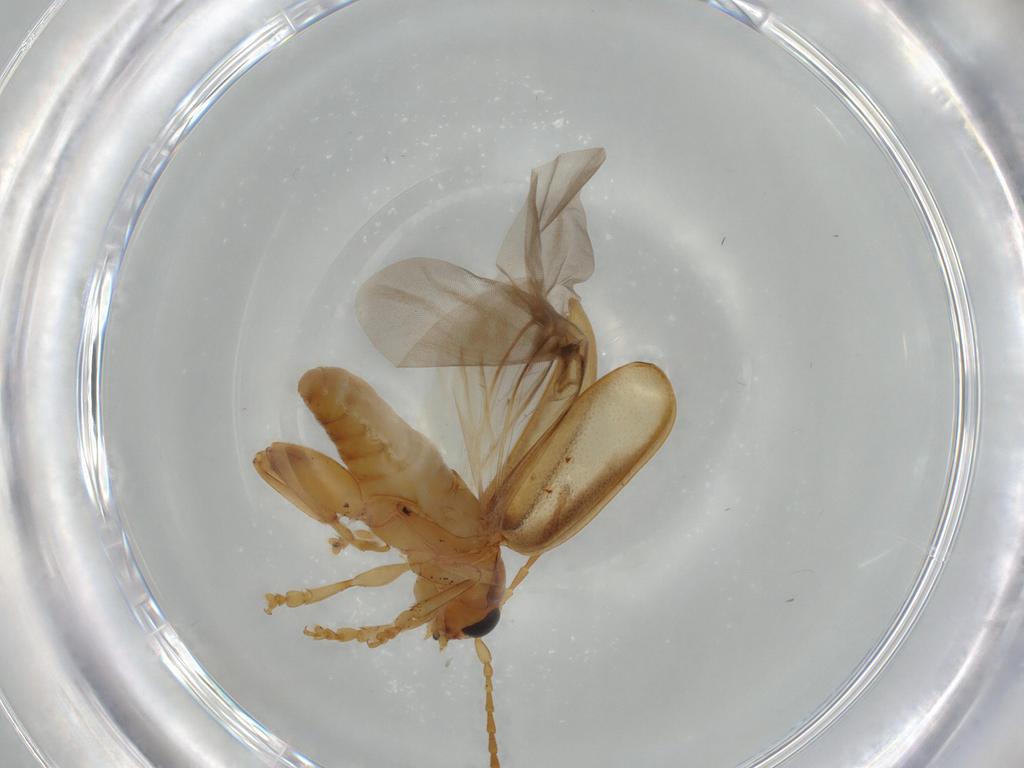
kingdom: Animalia
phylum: Arthropoda
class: Insecta
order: Coleoptera
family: Chrysomelidae
